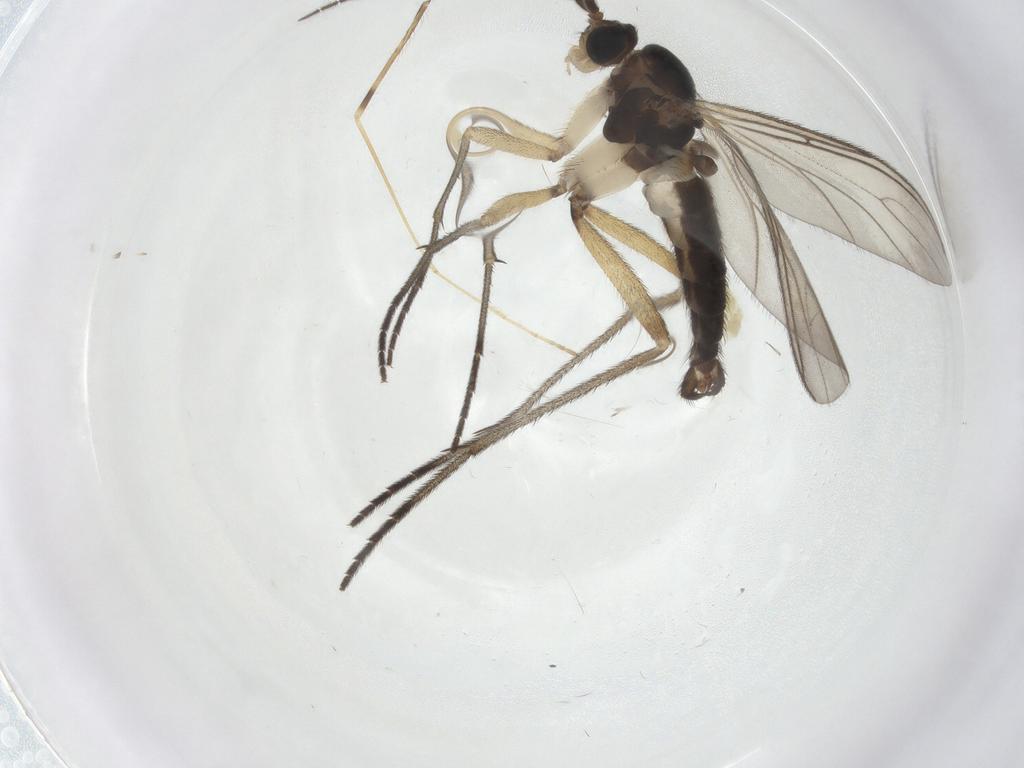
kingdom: Animalia
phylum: Arthropoda
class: Insecta
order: Diptera
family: Sciaridae
